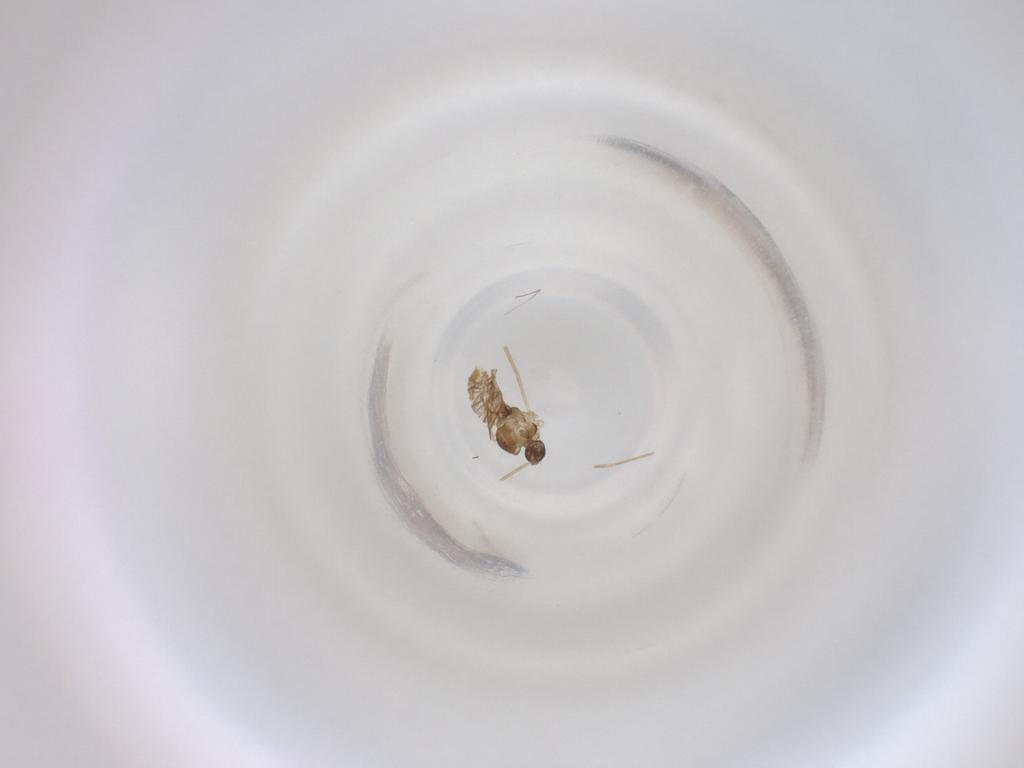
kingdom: Animalia
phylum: Arthropoda
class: Insecta
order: Diptera
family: Cecidomyiidae
